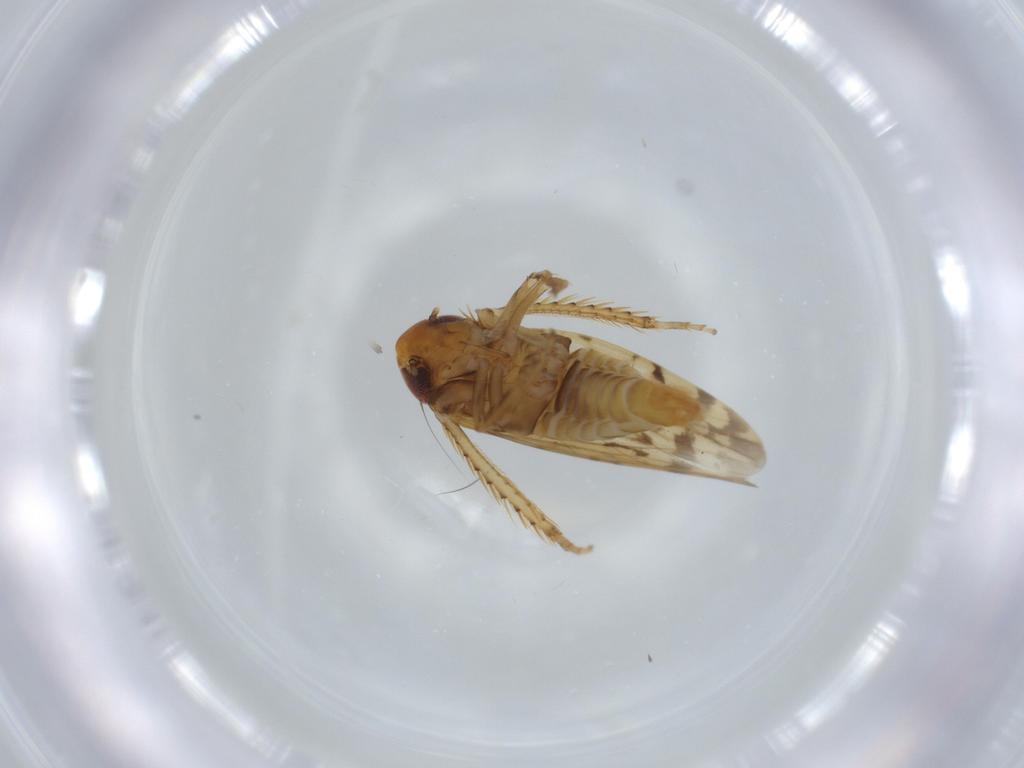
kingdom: Animalia
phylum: Arthropoda
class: Insecta
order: Hemiptera
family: Cicadellidae
